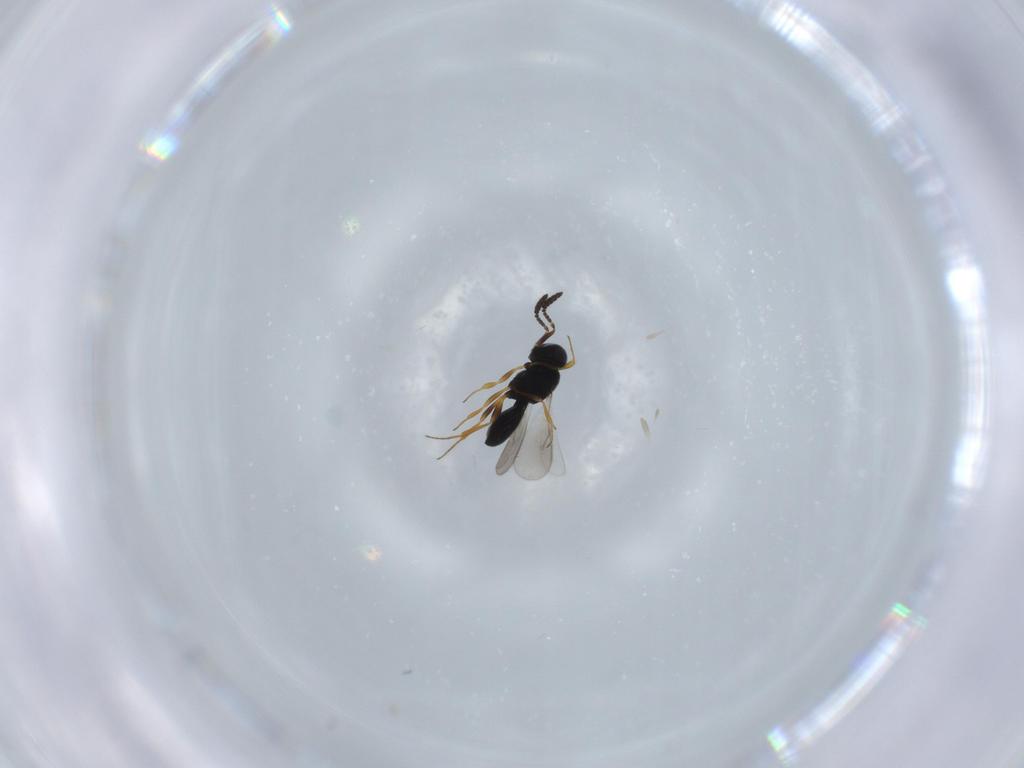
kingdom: Animalia
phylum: Arthropoda
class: Insecta
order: Hymenoptera
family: Scelionidae
